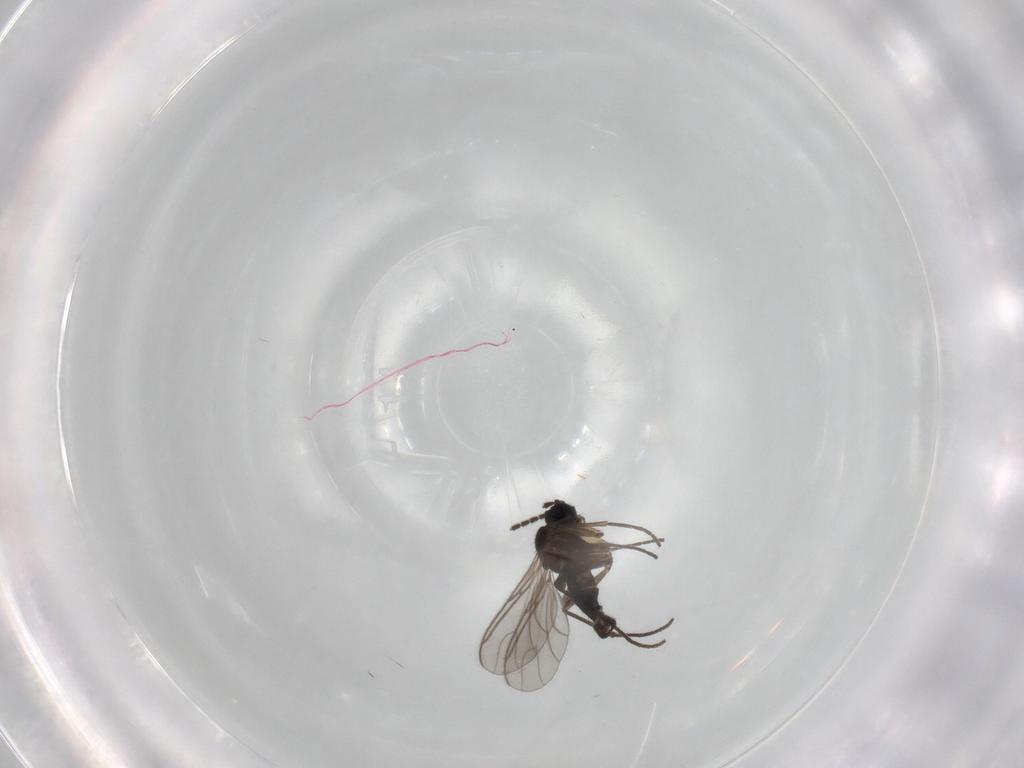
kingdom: Animalia
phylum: Arthropoda
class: Insecta
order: Diptera
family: Sciaridae
